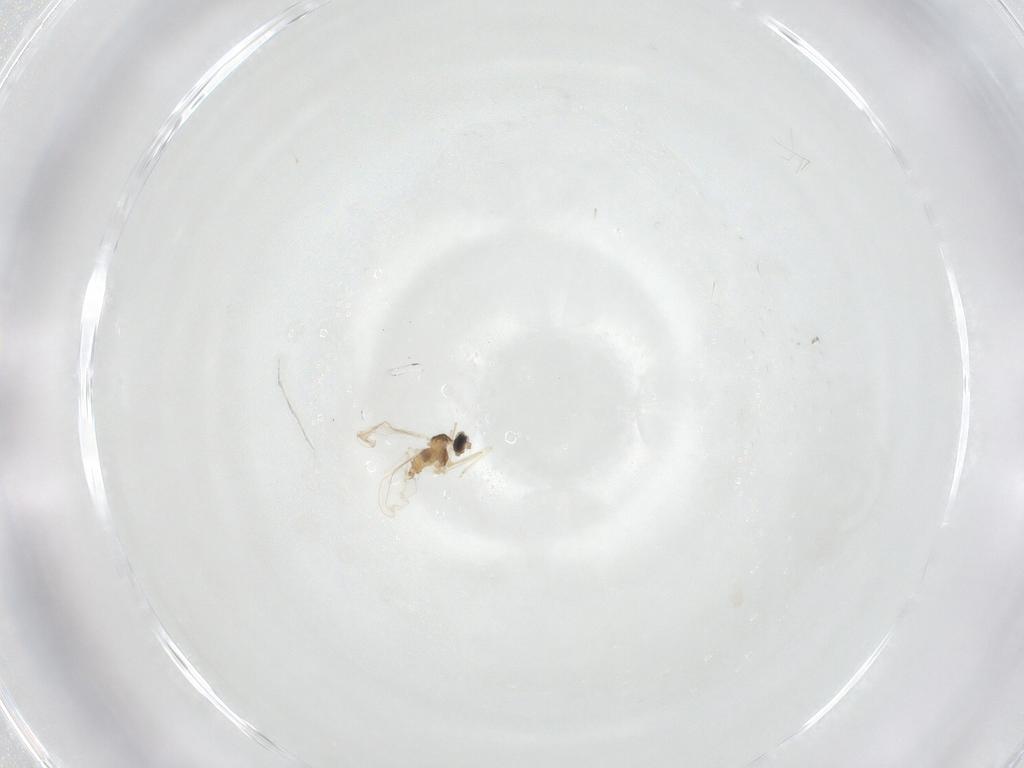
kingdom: Animalia
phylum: Arthropoda
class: Insecta
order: Diptera
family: Cecidomyiidae
